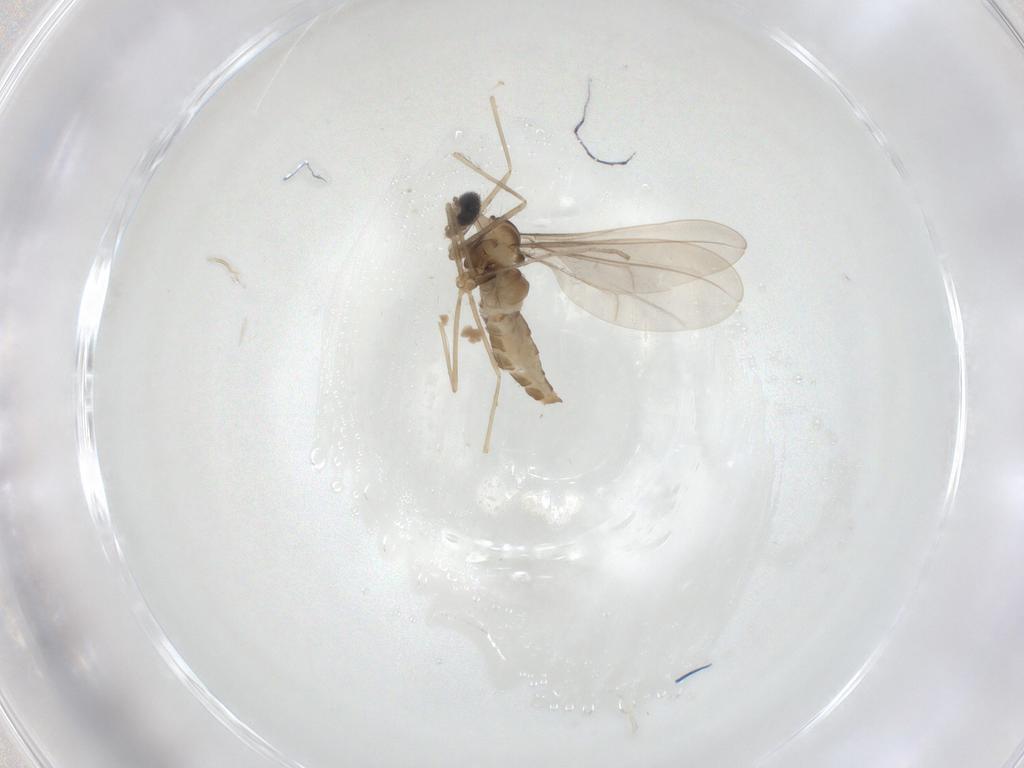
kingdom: Animalia
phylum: Arthropoda
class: Insecta
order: Diptera
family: Cecidomyiidae
